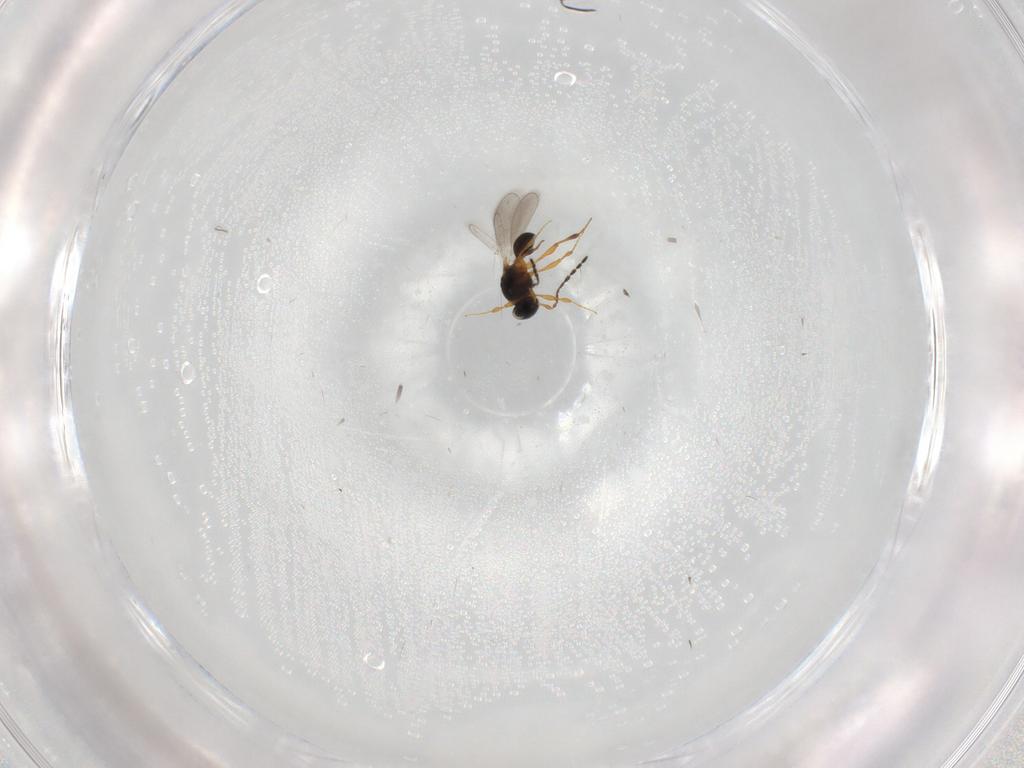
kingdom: Animalia
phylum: Arthropoda
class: Insecta
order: Hymenoptera
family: Platygastridae
